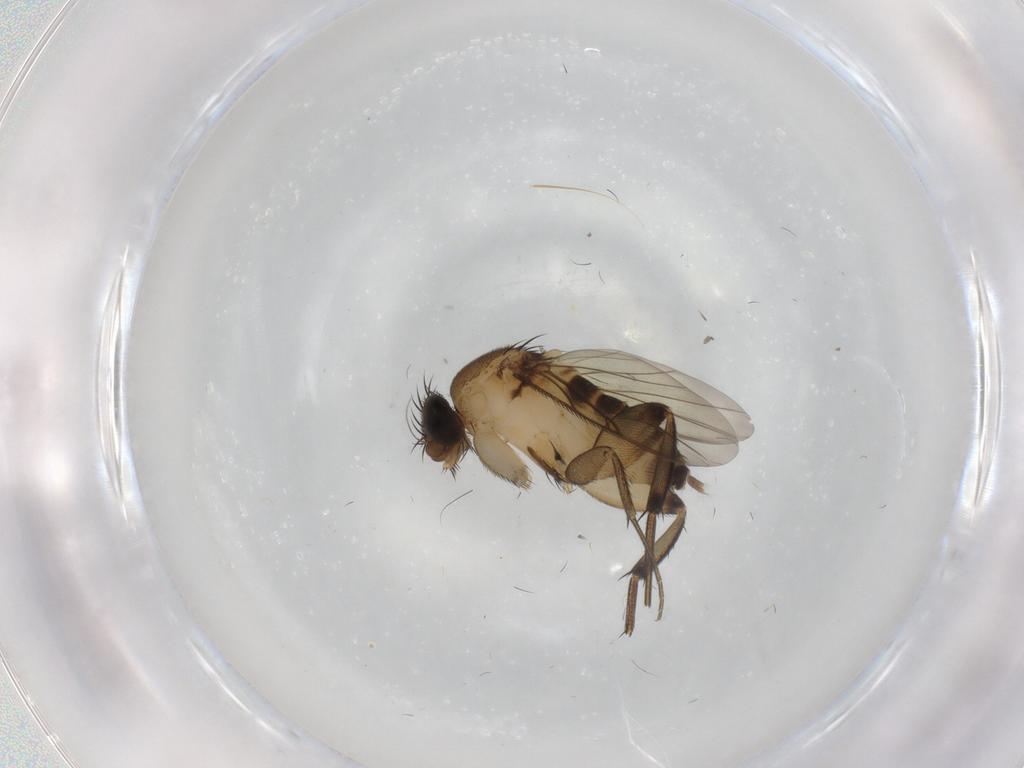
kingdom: Animalia
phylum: Arthropoda
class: Insecta
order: Diptera
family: Phoridae
